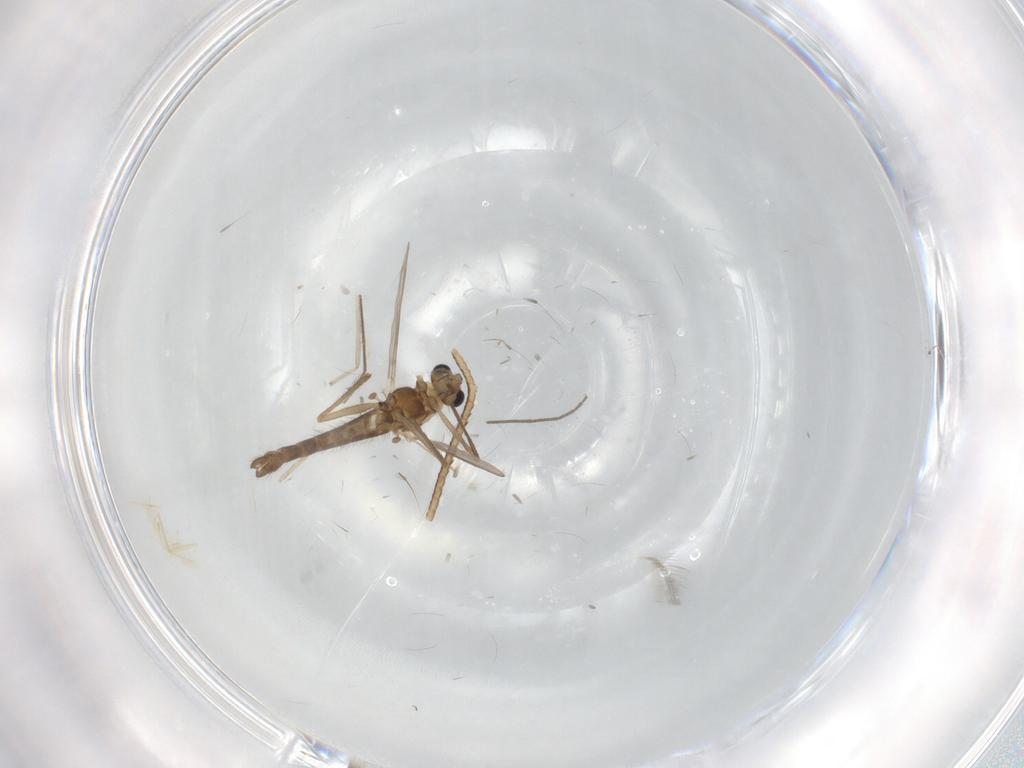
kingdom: Animalia
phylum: Arthropoda
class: Insecta
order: Diptera
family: Chironomidae
